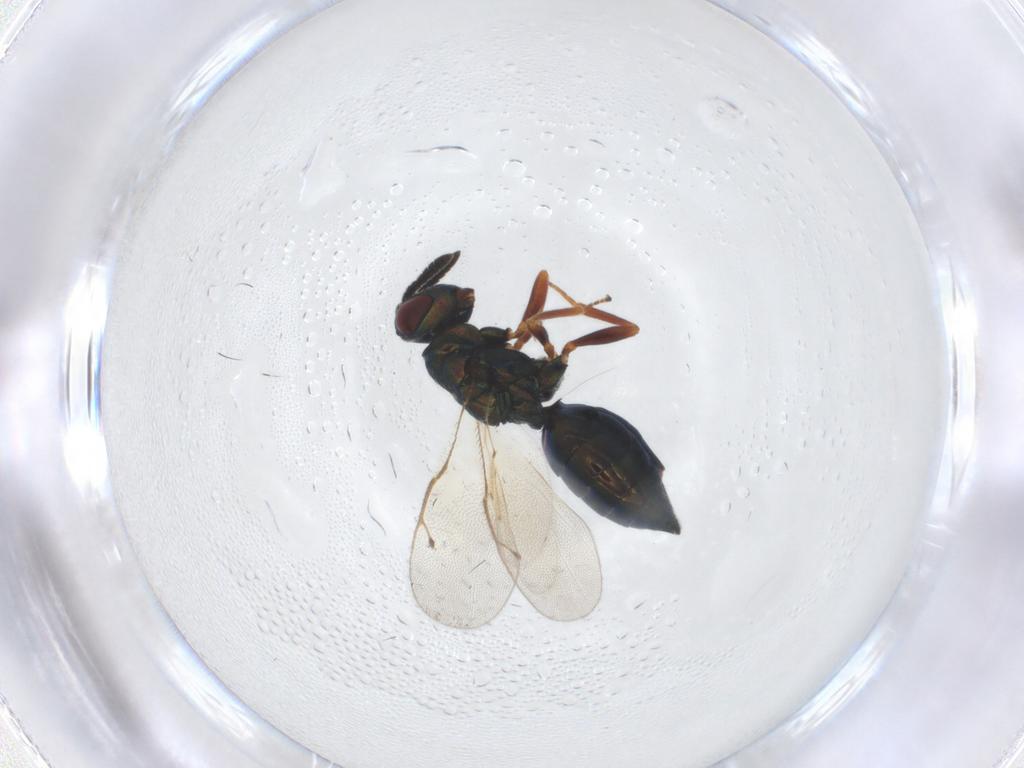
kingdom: Animalia
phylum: Arthropoda
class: Insecta
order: Hymenoptera
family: Pteromalidae
